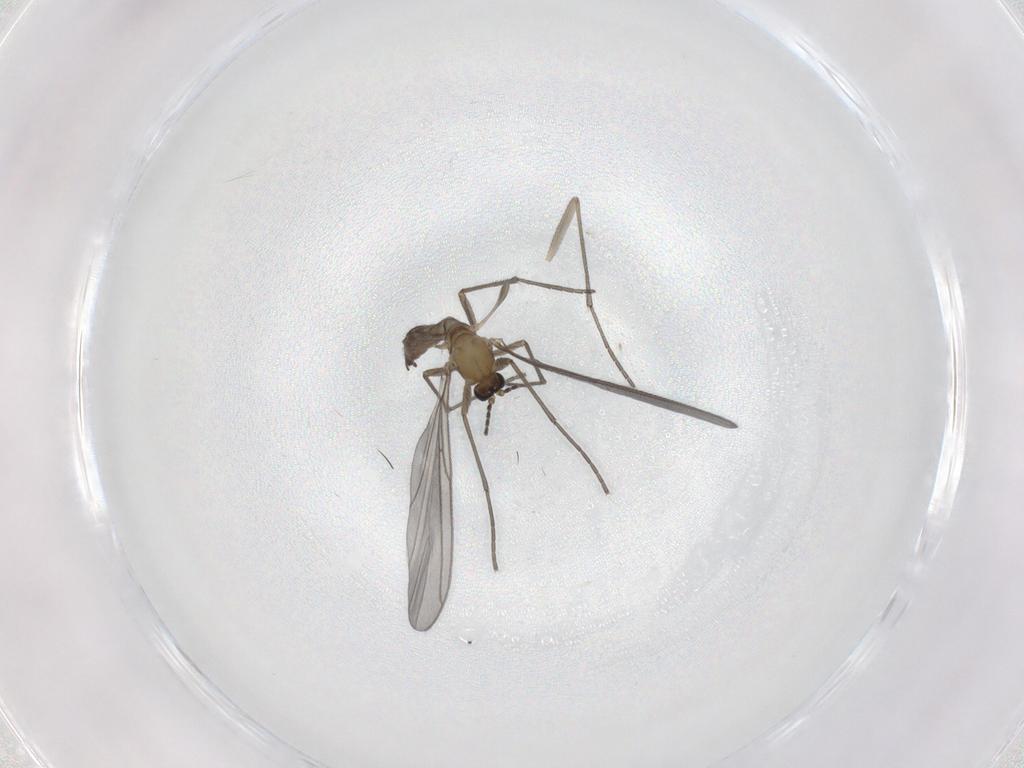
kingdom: Animalia
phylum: Arthropoda
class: Insecta
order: Diptera
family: Sciaridae
